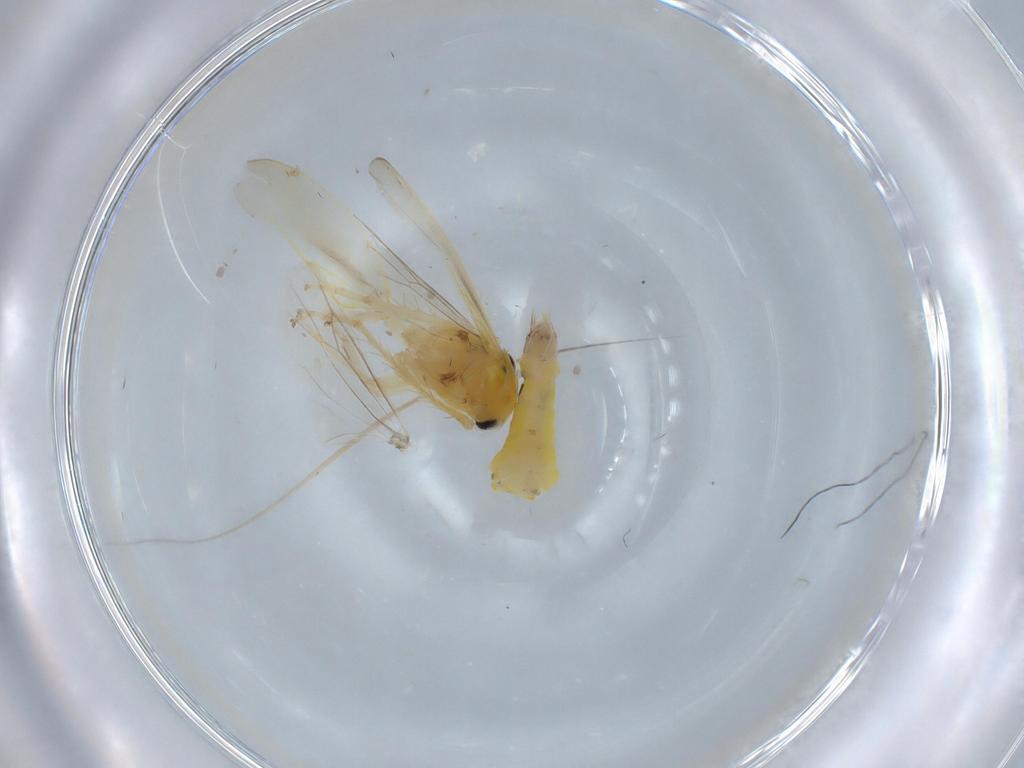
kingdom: Animalia
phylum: Arthropoda
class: Insecta
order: Hemiptera
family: Cicadellidae
